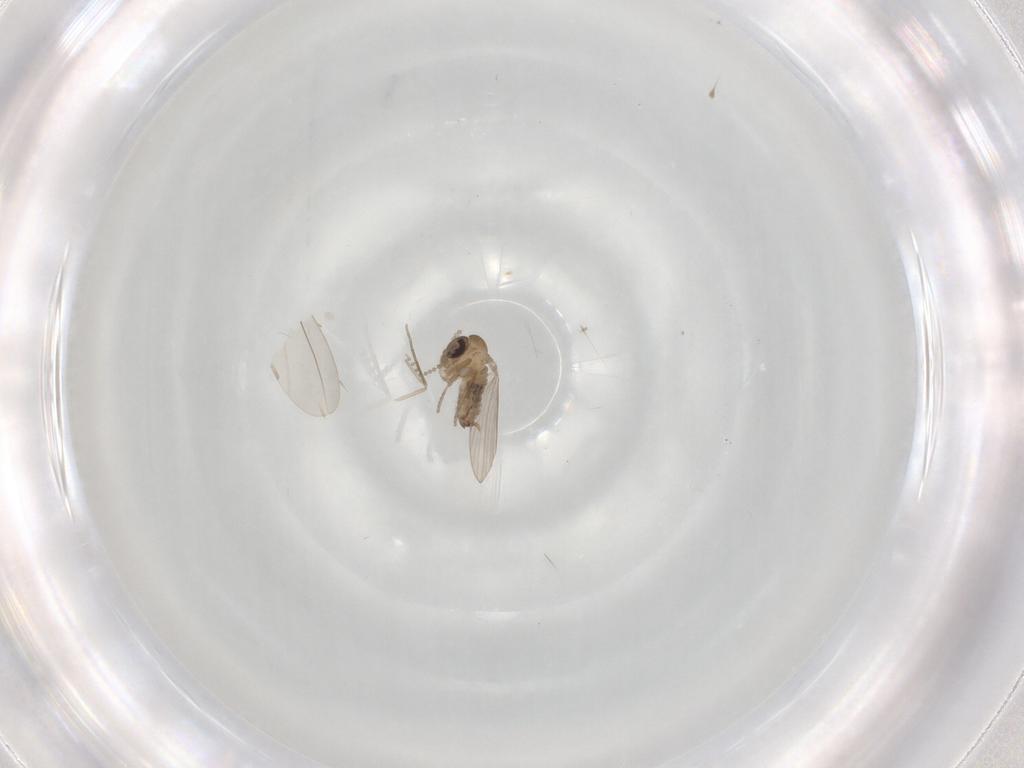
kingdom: Animalia
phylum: Arthropoda
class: Insecta
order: Diptera
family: Psychodidae
